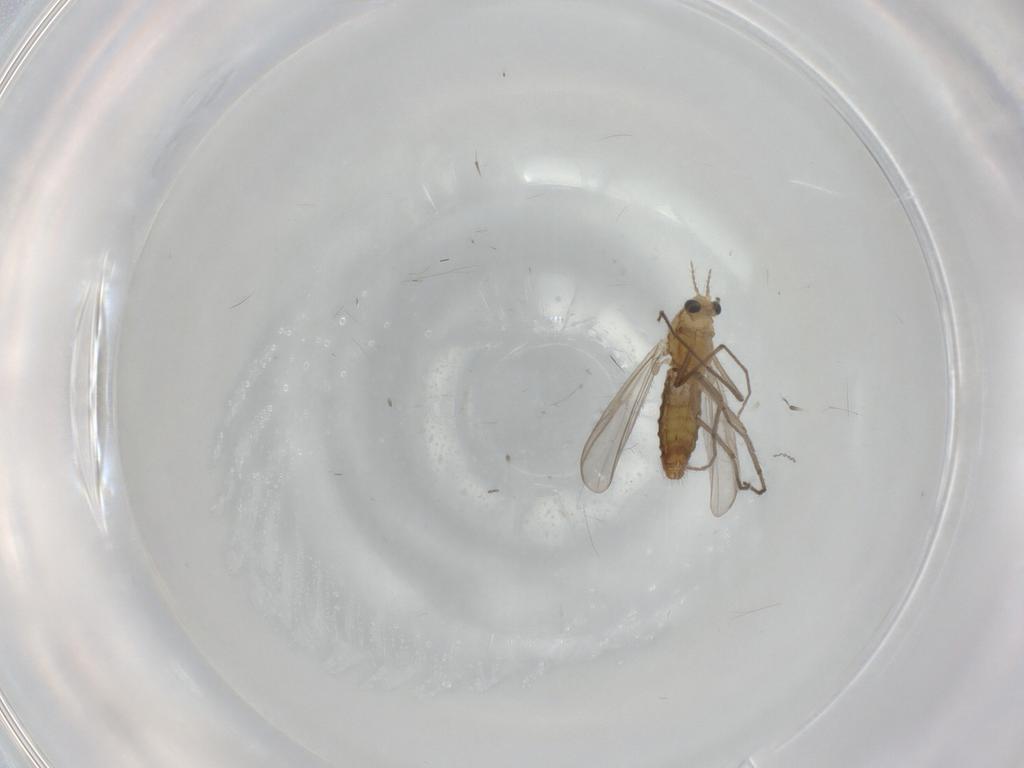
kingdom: Animalia
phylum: Arthropoda
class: Insecta
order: Diptera
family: Chironomidae
